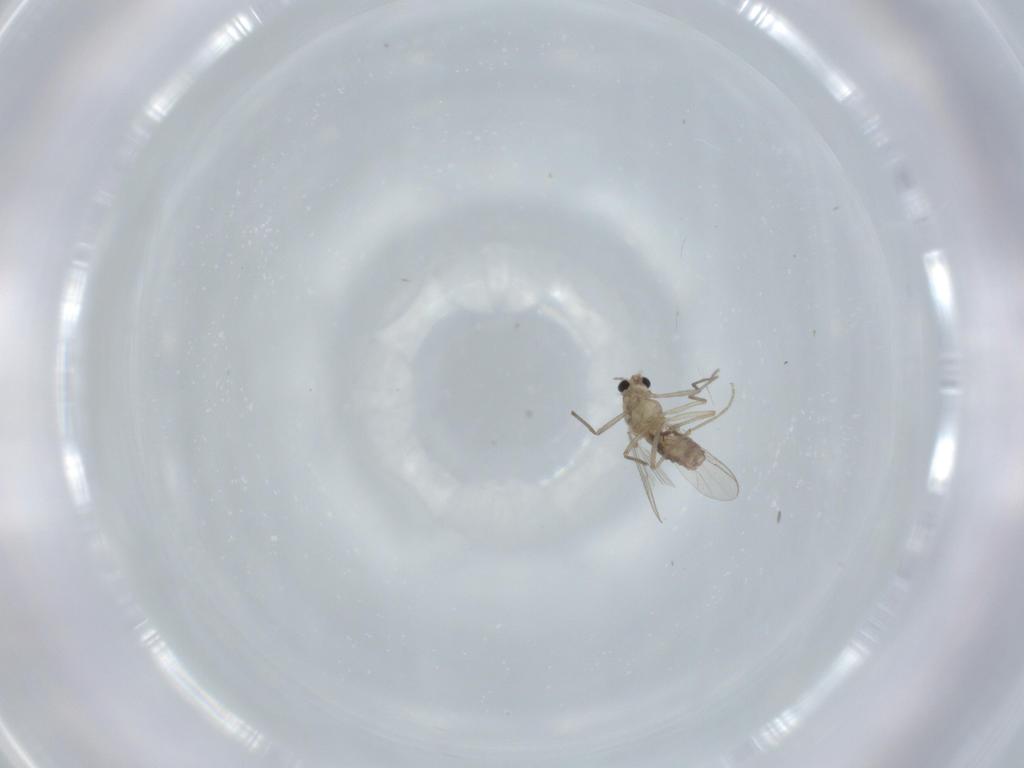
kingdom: Animalia
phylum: Arthropoda
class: Insecta
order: Diptera
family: Chironomidae
